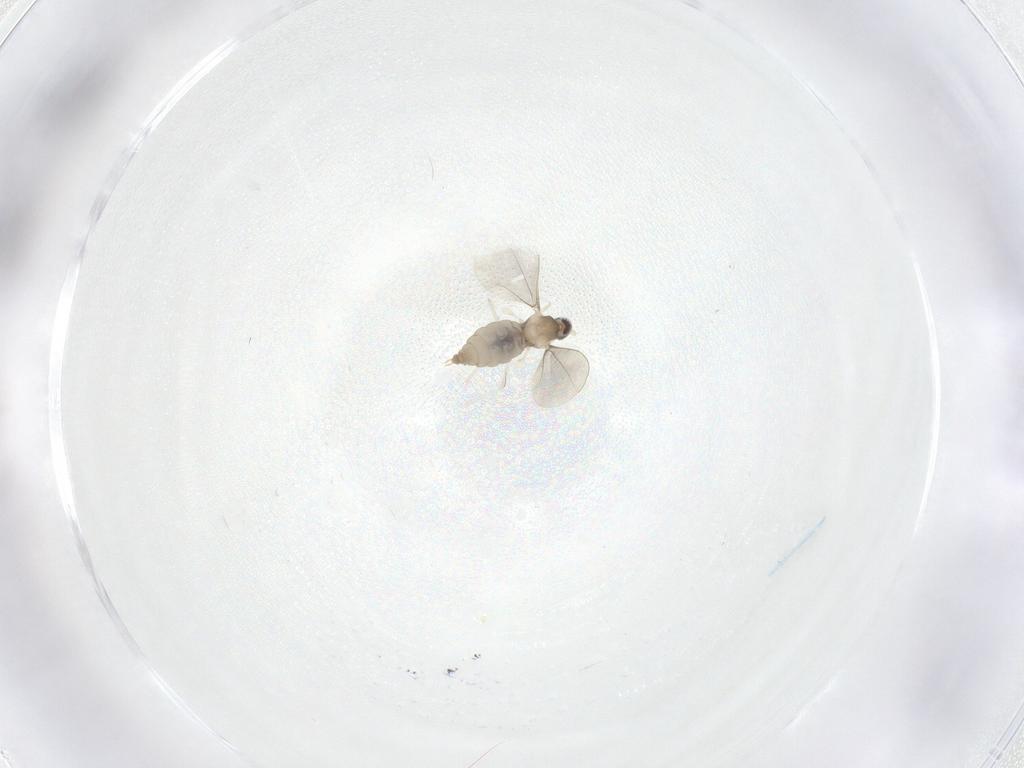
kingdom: Animalia
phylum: Arthropoda
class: Insecta
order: Diptera
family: Cecidomyiidae
